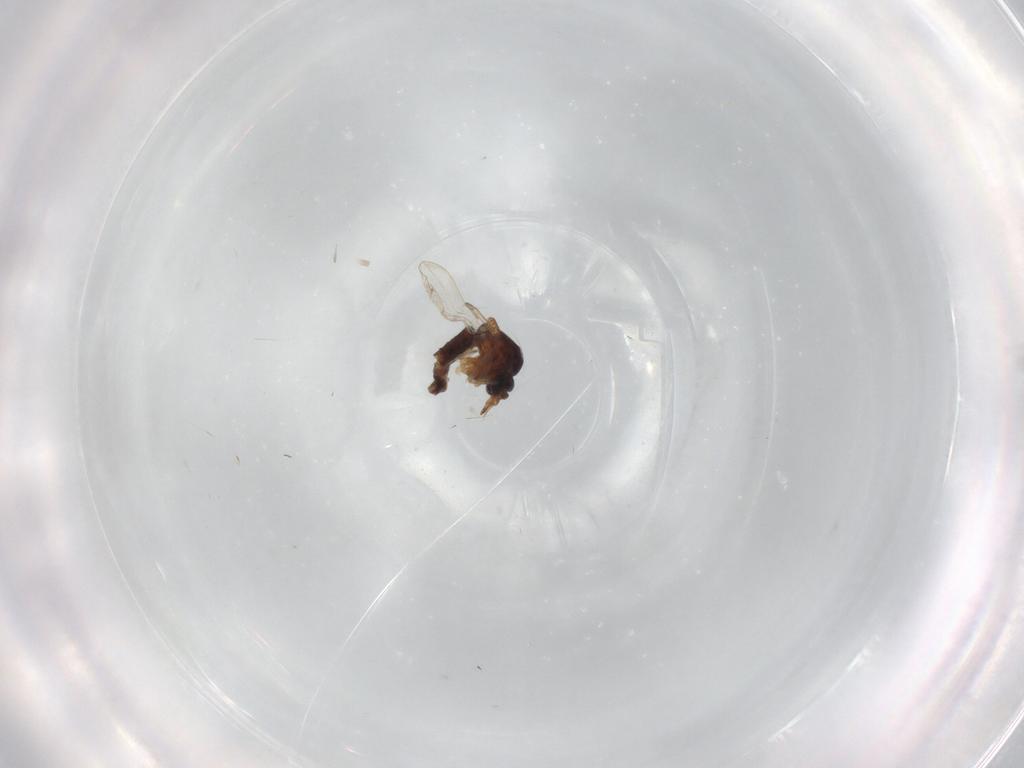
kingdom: Animalia
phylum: Arthropoda
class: Insecta
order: Diptera
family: Ceratopogonidae
